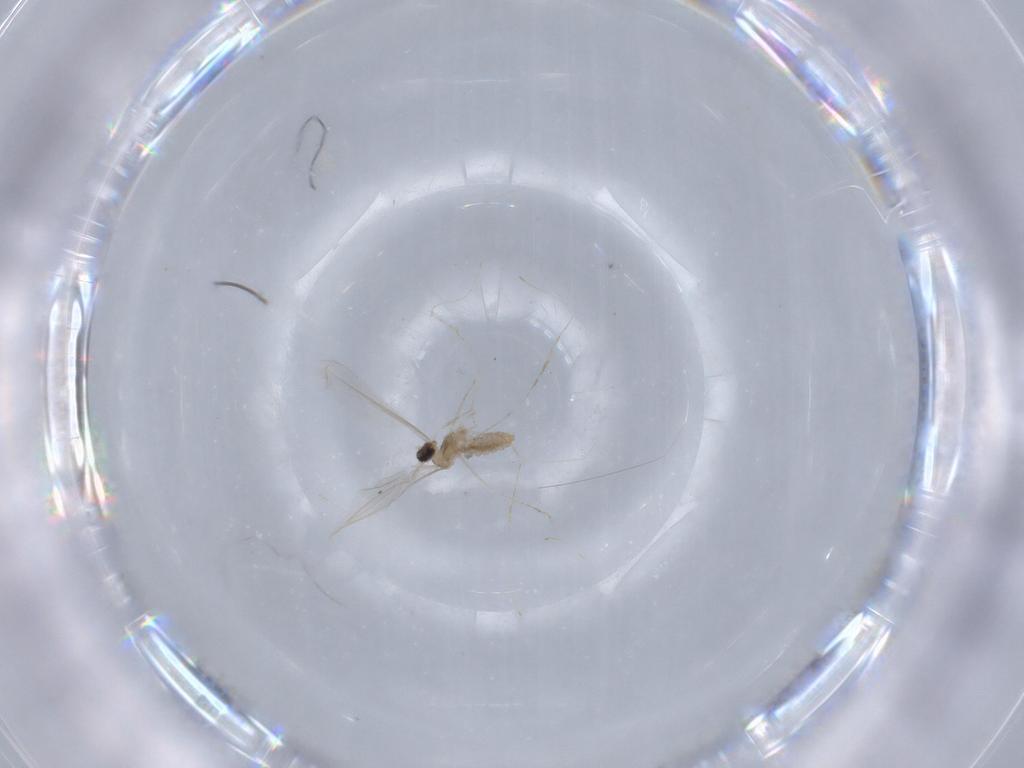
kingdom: Animalia
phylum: Arthropoda
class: Insecta
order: Diptera
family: Cecidomyiidae
